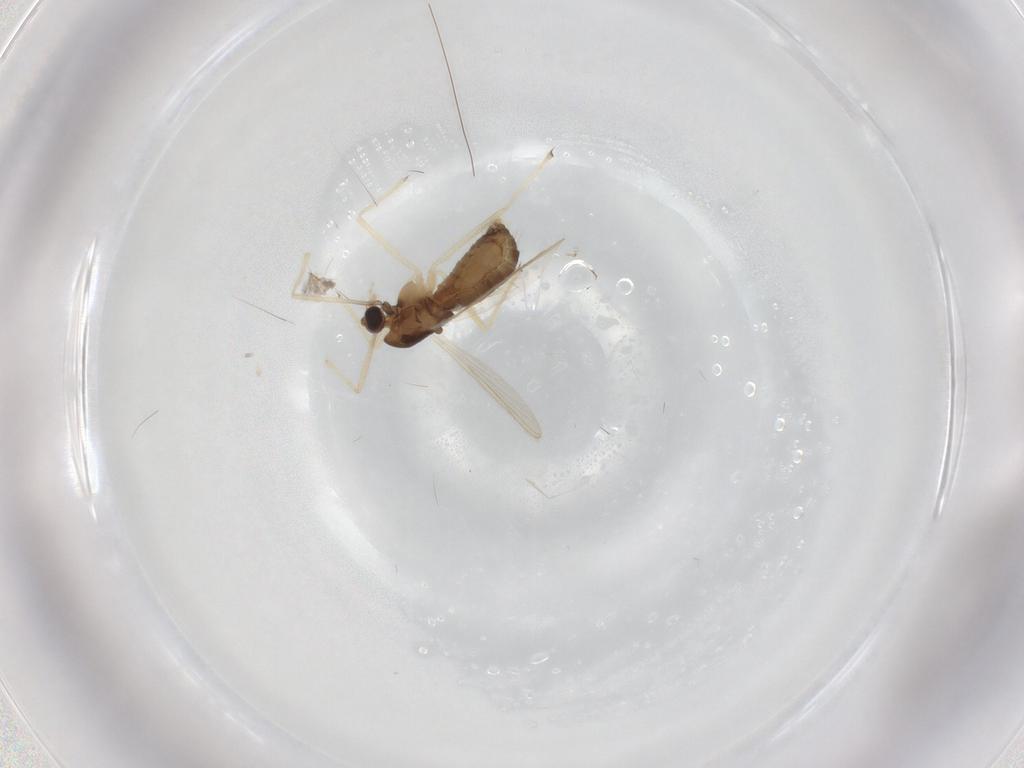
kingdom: Animalia
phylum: Arthropoda
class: Insecta
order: Diptera
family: Chironomidae
